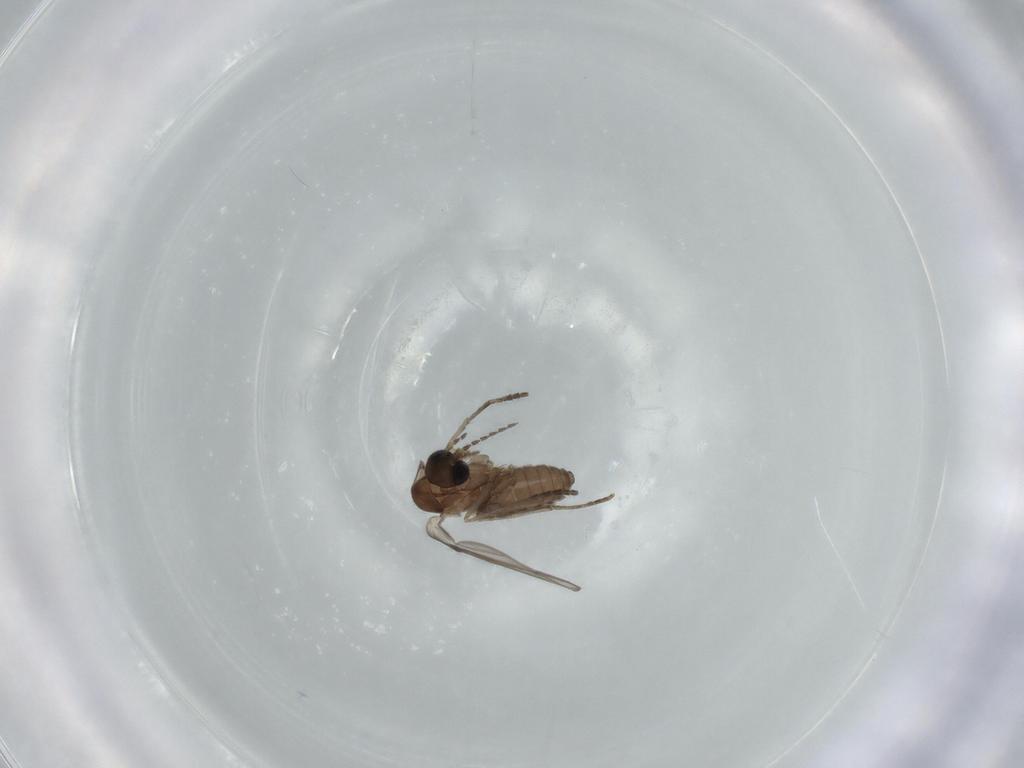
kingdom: Animalia
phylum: Arthropoda
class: Insecta
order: Diptera
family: Psychodidae
